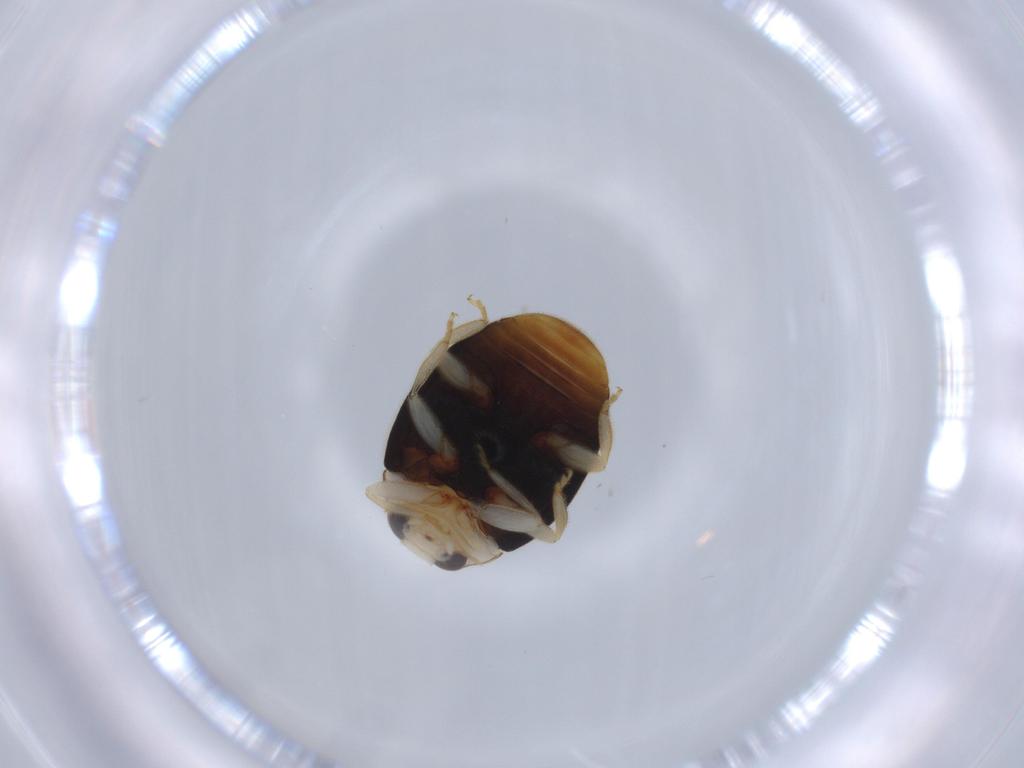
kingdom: Animalia
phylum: Arthropoda
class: Insecta
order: Coleoptera
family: Coccinellidae
